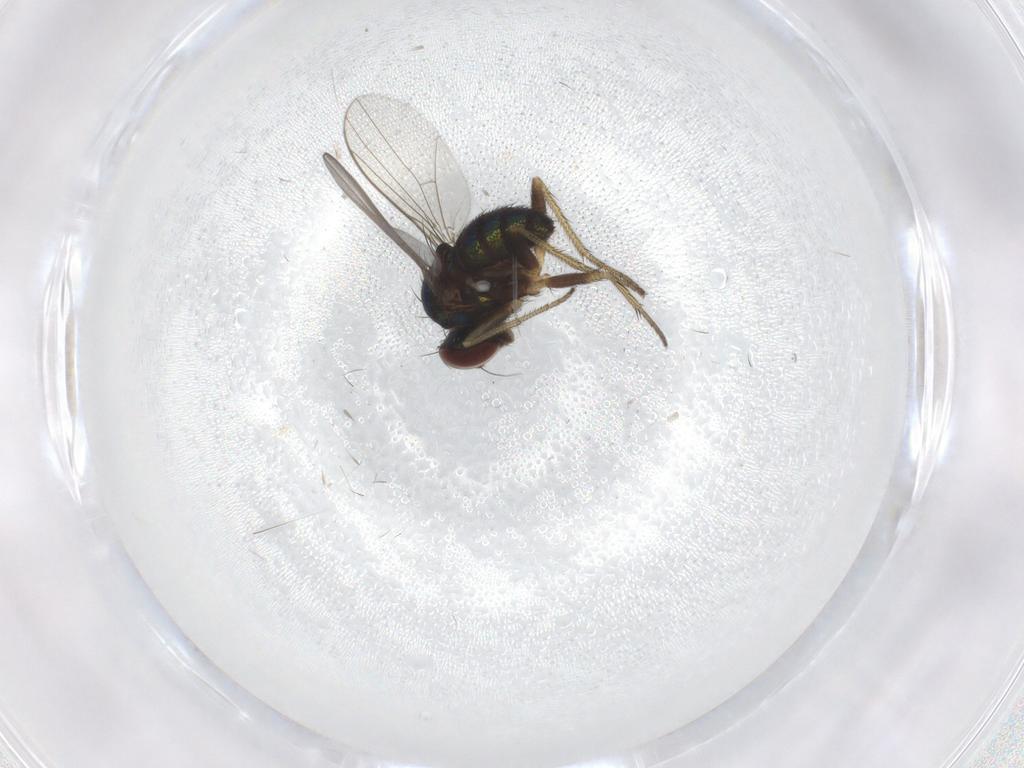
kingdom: Animalia
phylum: Arthropoda
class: Insecta
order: Diptera
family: Dolichopodidae
